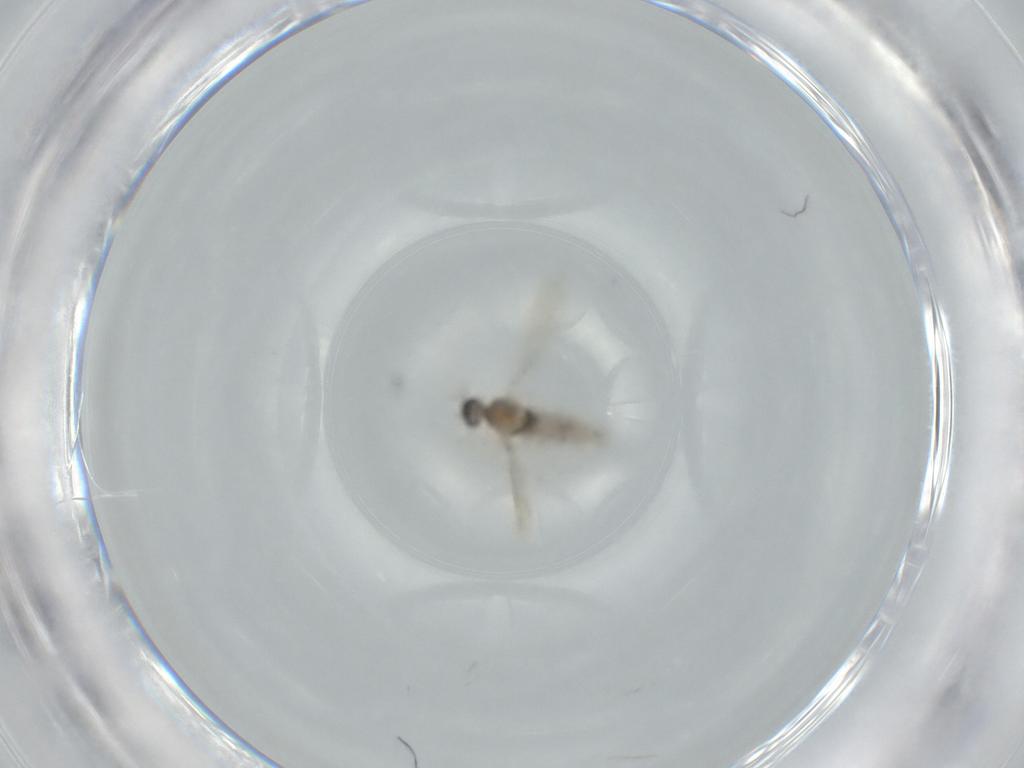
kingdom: Animalia
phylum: Arthropoda
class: Insecta
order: Diptera
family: Cecidomyiidae
